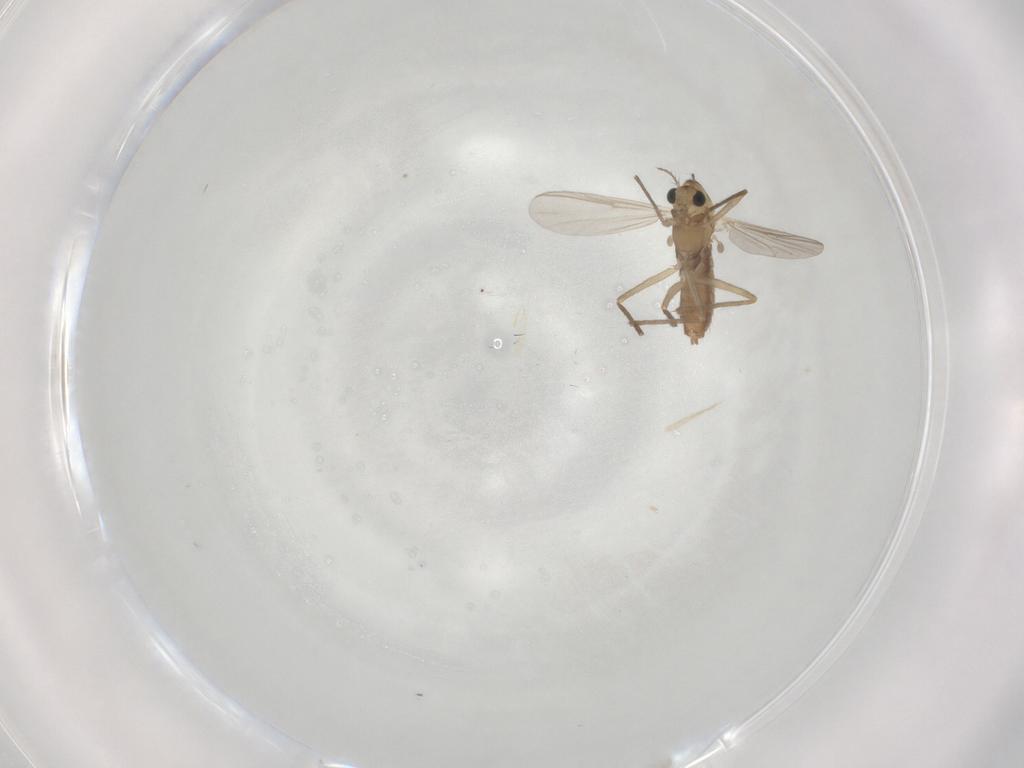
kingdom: Animalia
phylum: Arthropoda
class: Insecta
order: Diptera
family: Chironomidae
